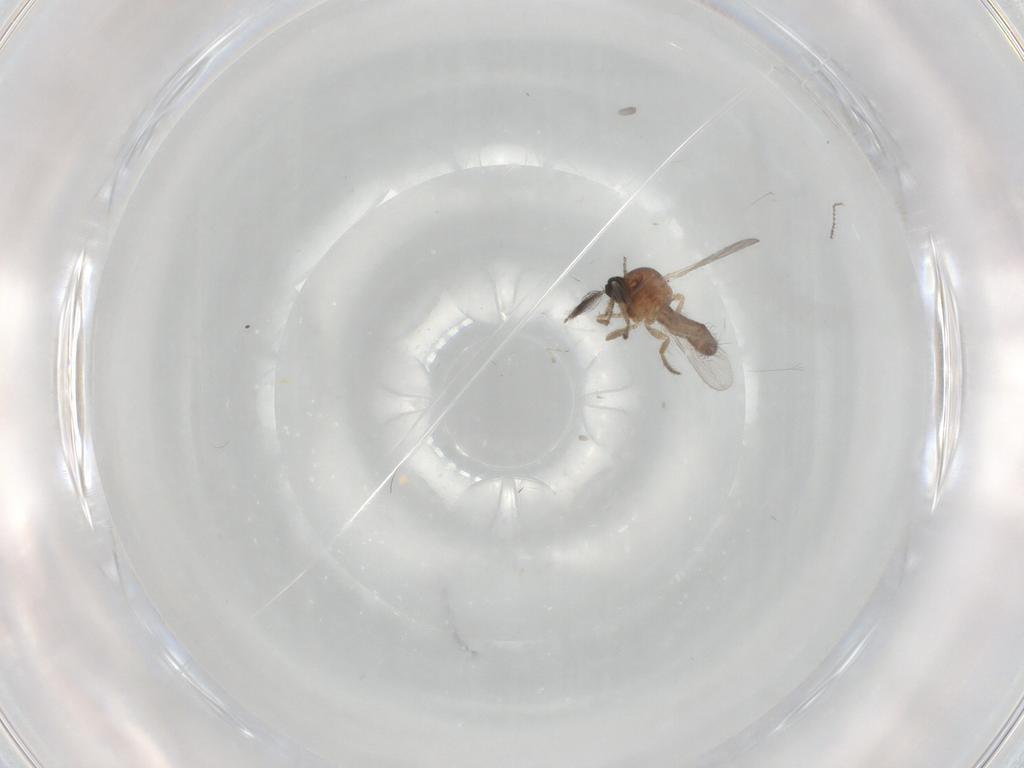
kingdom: Animalia
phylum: Arthropoda
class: Insecta
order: Diptera
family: Ceratopogonidae
